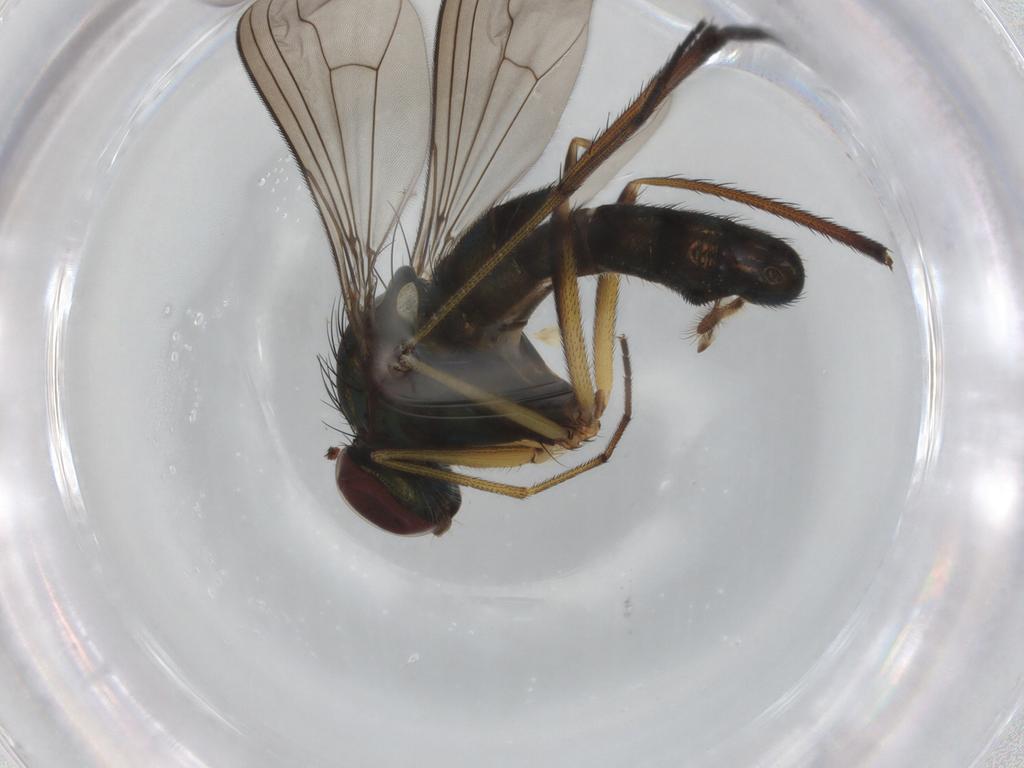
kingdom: Animalia
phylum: Arthropoda
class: Insecta
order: Diptera
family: Dolichopodidae
